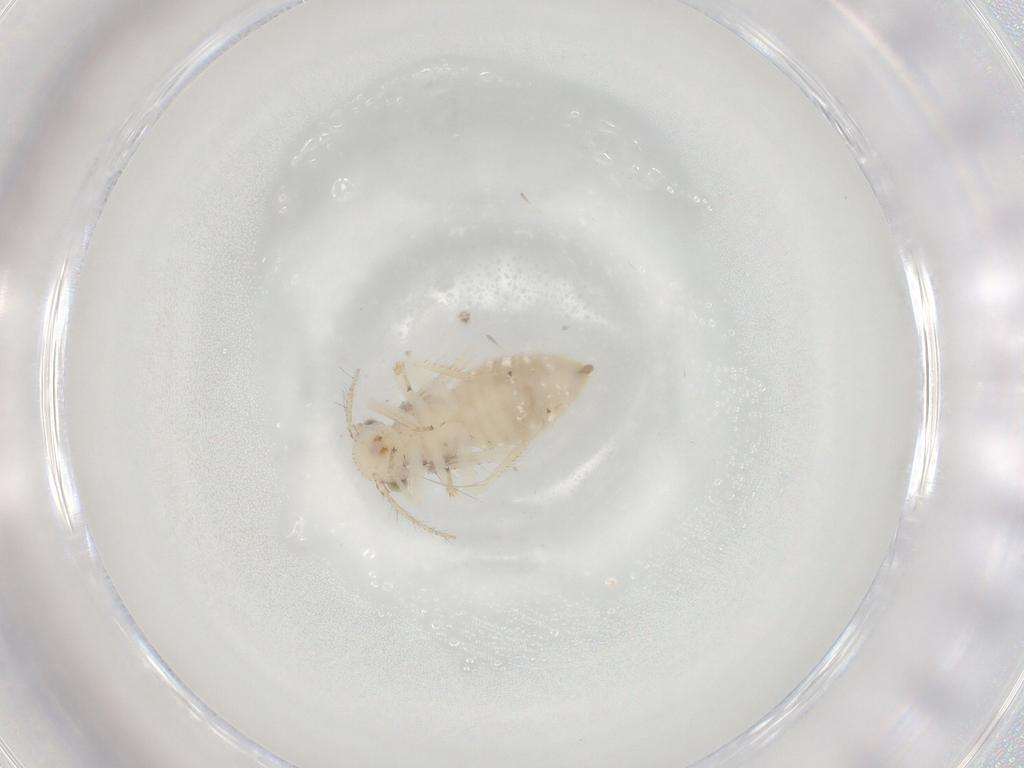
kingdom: Animalia
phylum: Arthropoda
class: Insecta
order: Psocodea
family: Pseudocaeciliidae
